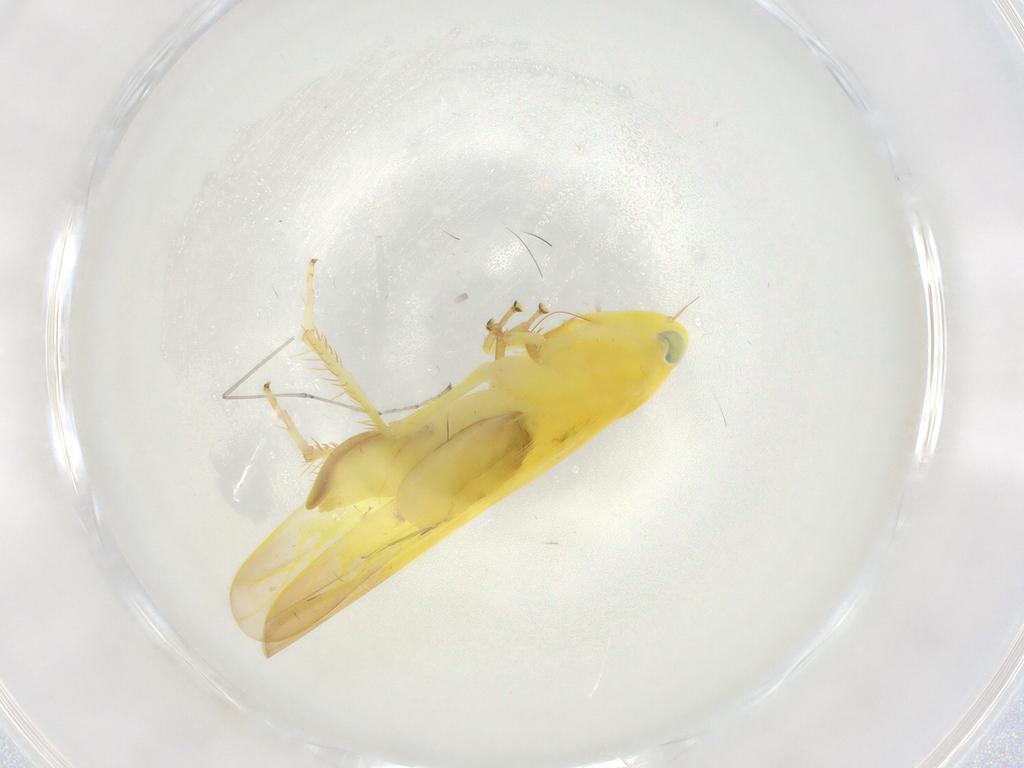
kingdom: Animalia
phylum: Arthropoda
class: Insecta
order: Hemiptera
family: Cicadellidae
